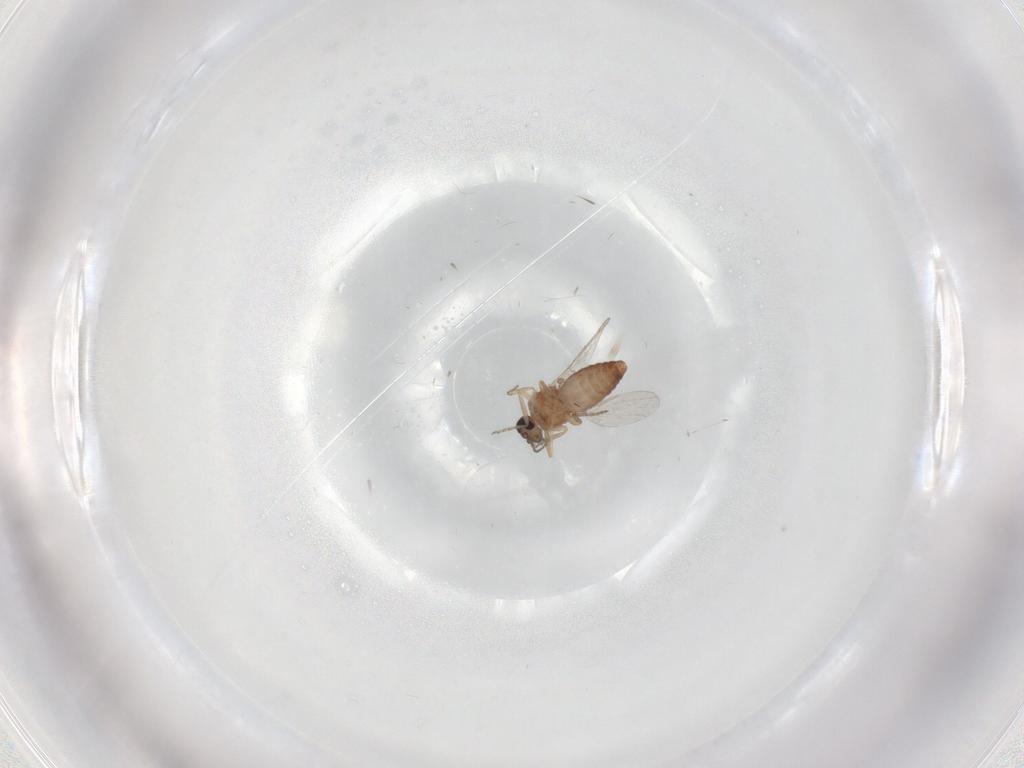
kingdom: Animalia
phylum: Arthropoda
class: Insecta
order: Diptera
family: Ceratopogonidae
